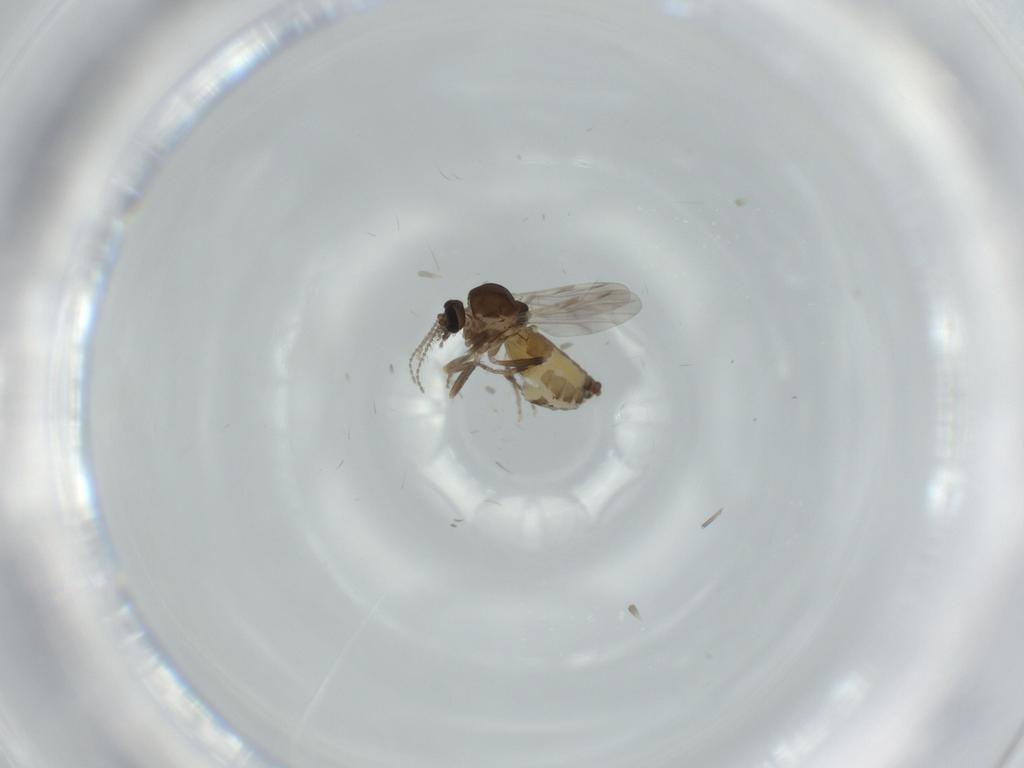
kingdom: Animalia
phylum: Arthropoda
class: Insecta
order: Diptera
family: Ceratopogonidae
